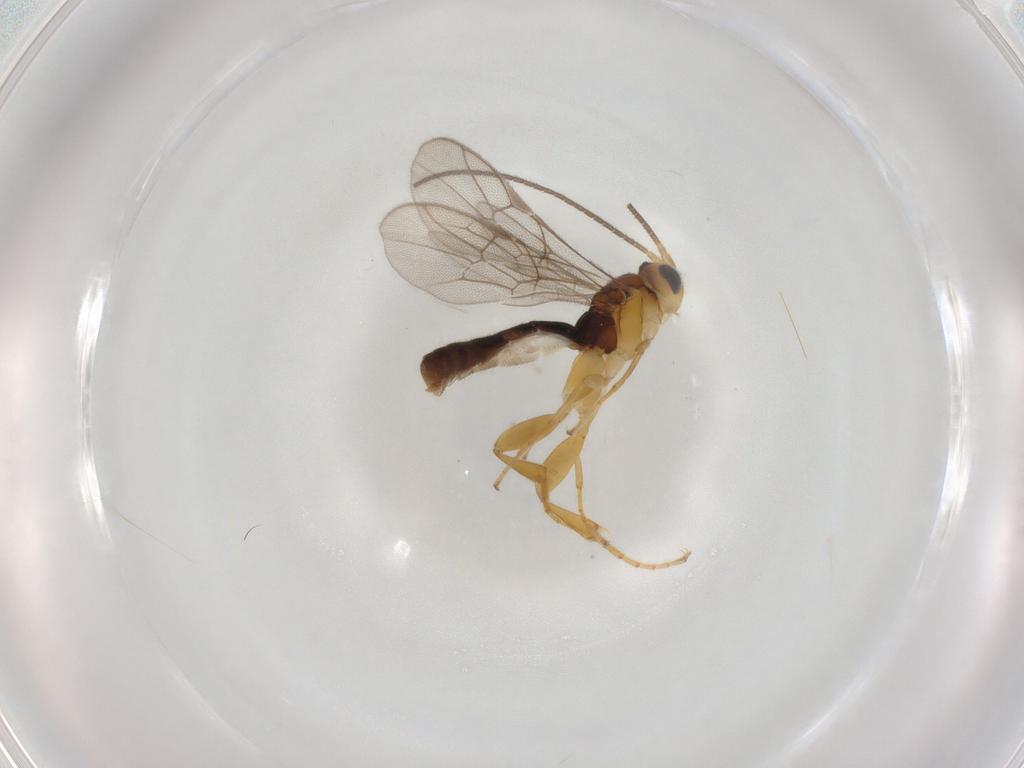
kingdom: Animalia
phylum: Arthropoda
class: Insecta
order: Hymenoptera
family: Ichneumonidae
